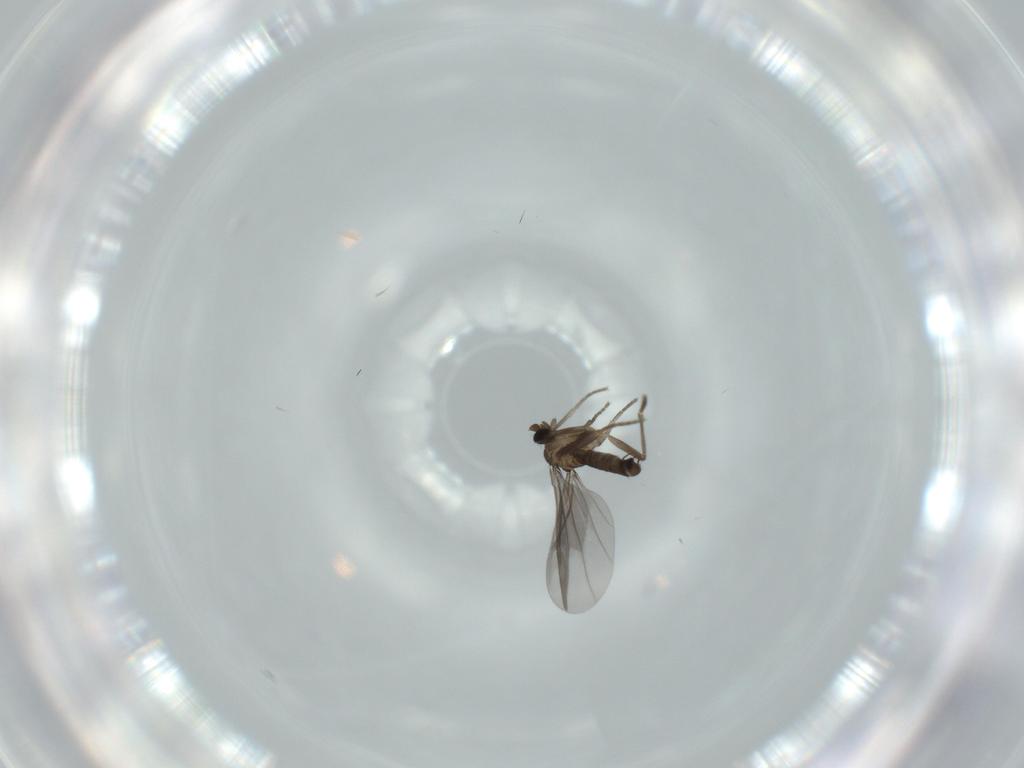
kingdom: Animalia
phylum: Arthropoda
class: Insecta
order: Diptera
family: Phoridae
